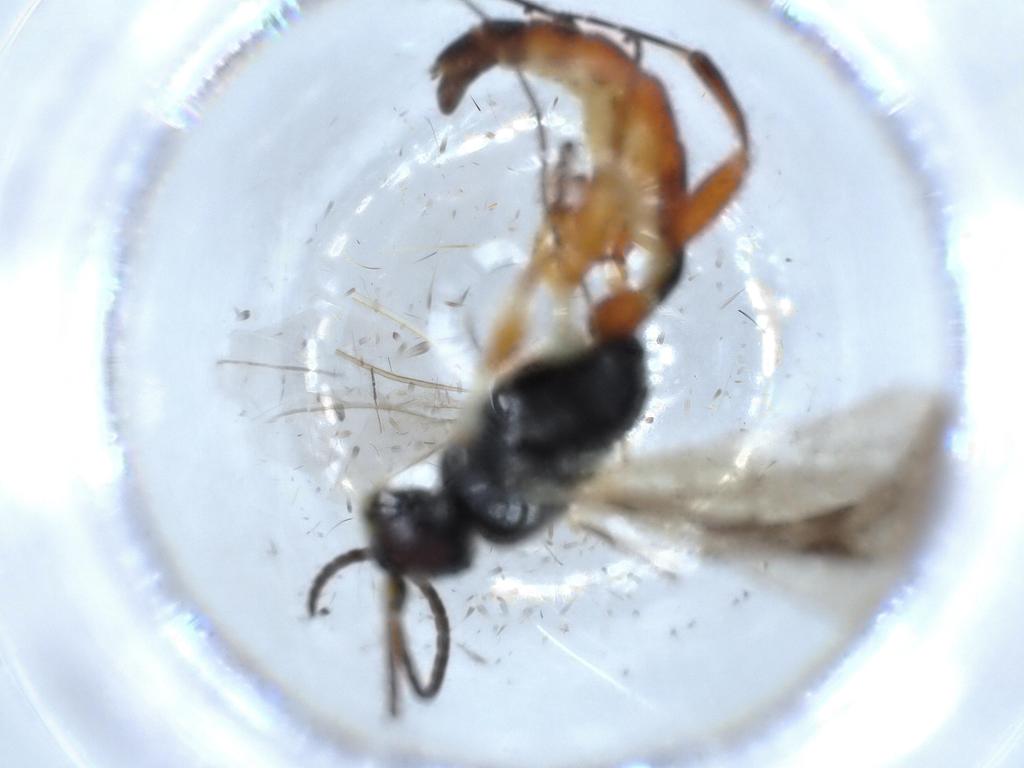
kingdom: Animalia
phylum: Arthropoda
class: Insecta
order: Hymenoptera
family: Ichneumonidae
